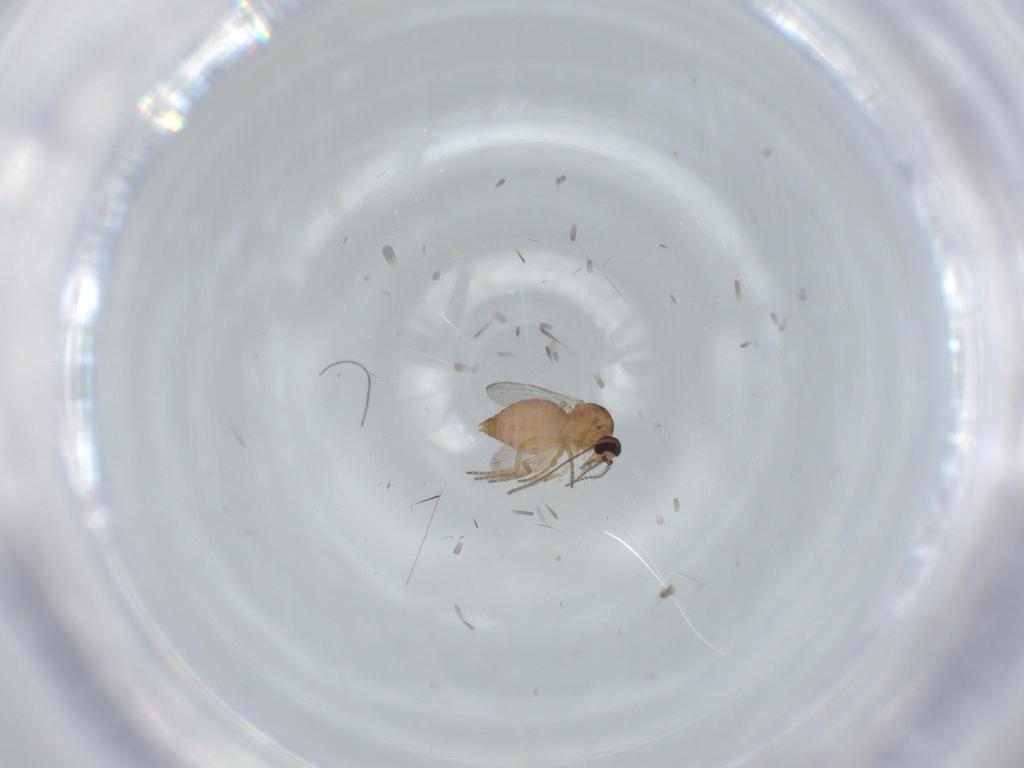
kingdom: Animalia
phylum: Arthropoda
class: Insecta
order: Diptera
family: Ceratopogonidae
